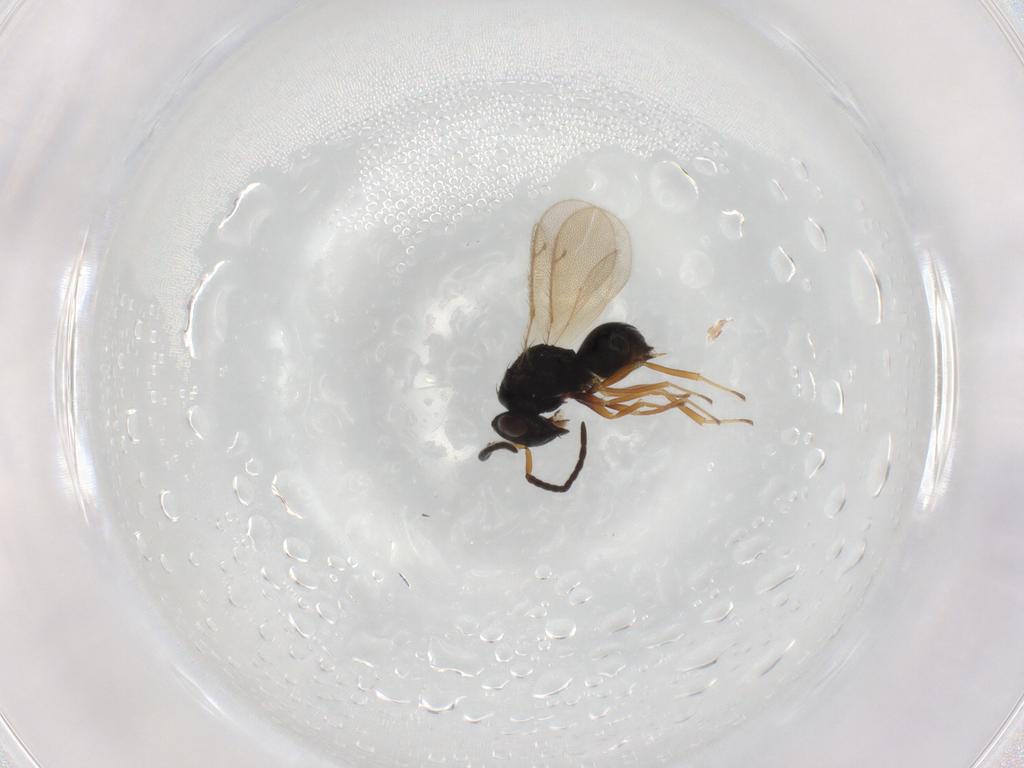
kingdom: Animalia
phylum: Arthropoda
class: Insecta
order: Hymenoptera
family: Diparidae
